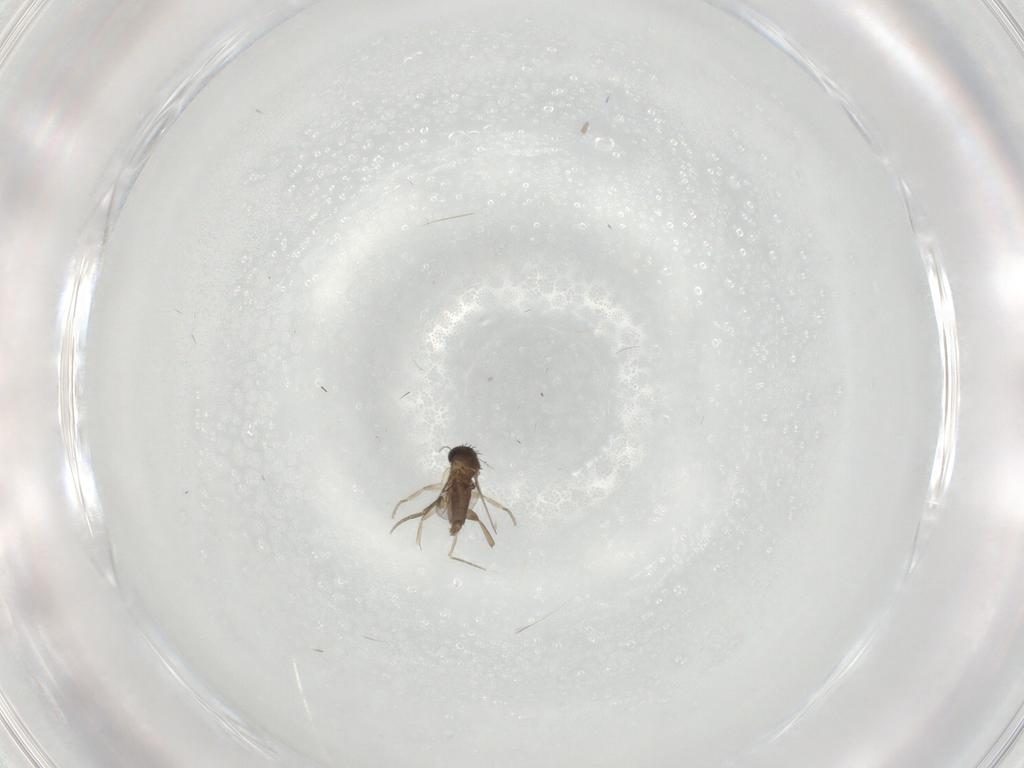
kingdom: Animalia
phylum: Arthropoda
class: Insecta
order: Diptera
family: Phoridae
